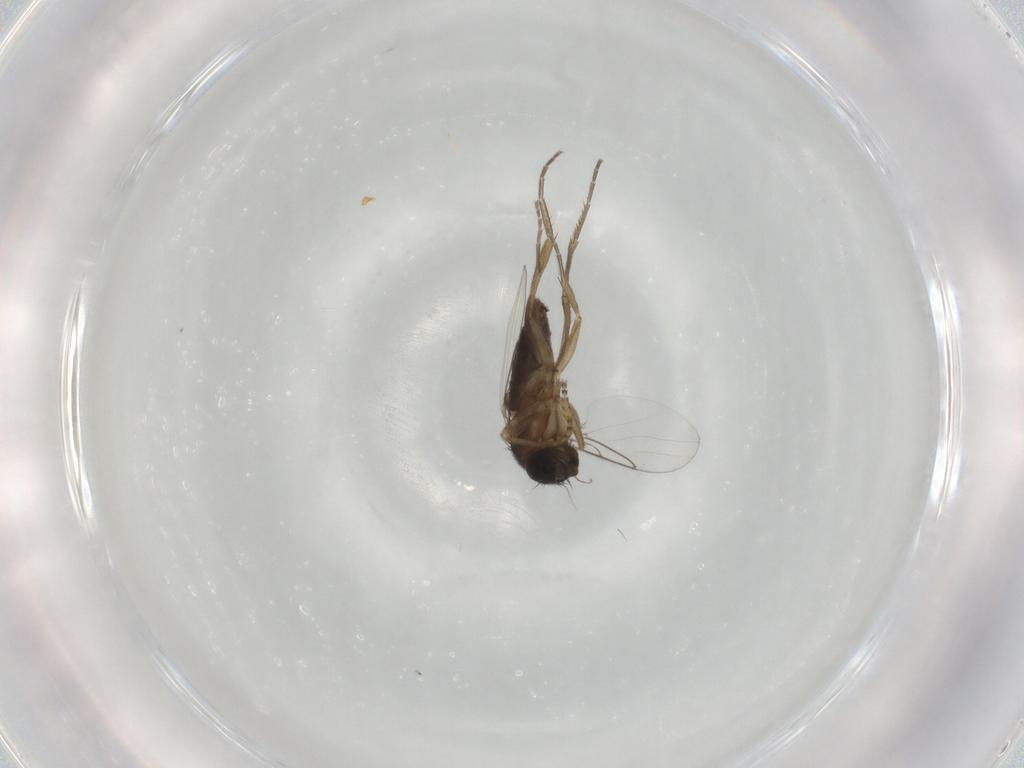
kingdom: Animalia
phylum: Arthropoda
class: Insecta
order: Diptera
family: Phoridae
